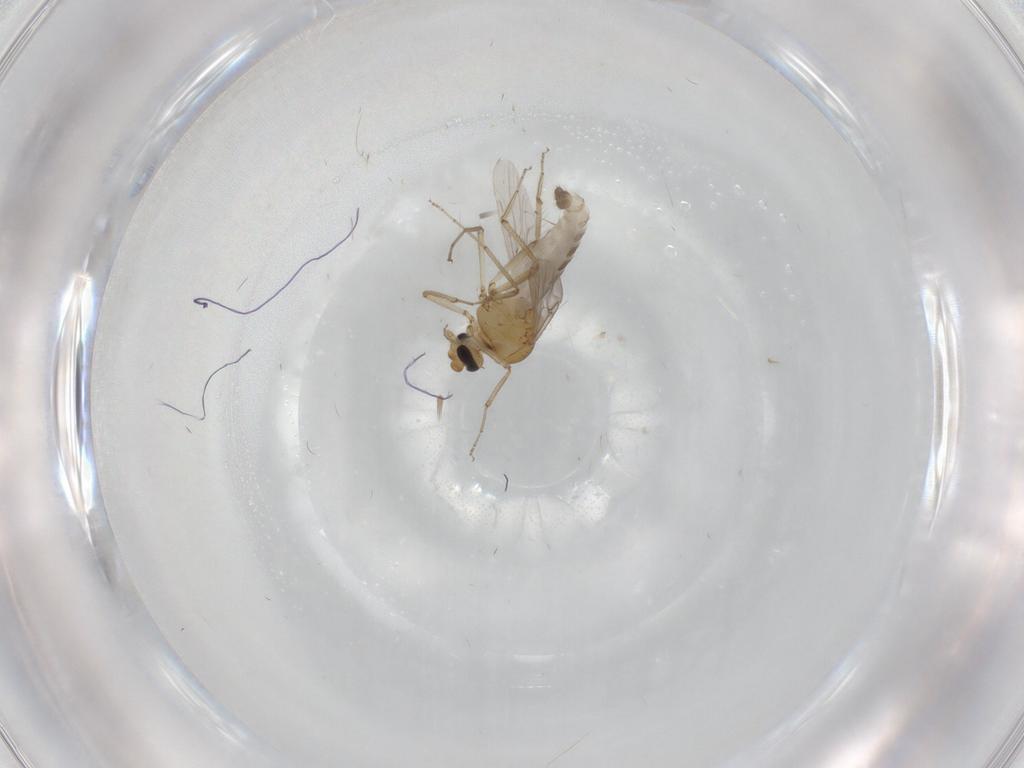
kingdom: Animalia
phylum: Arthropoda
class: Insecta
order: Diptera
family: Ceratopogonidae
